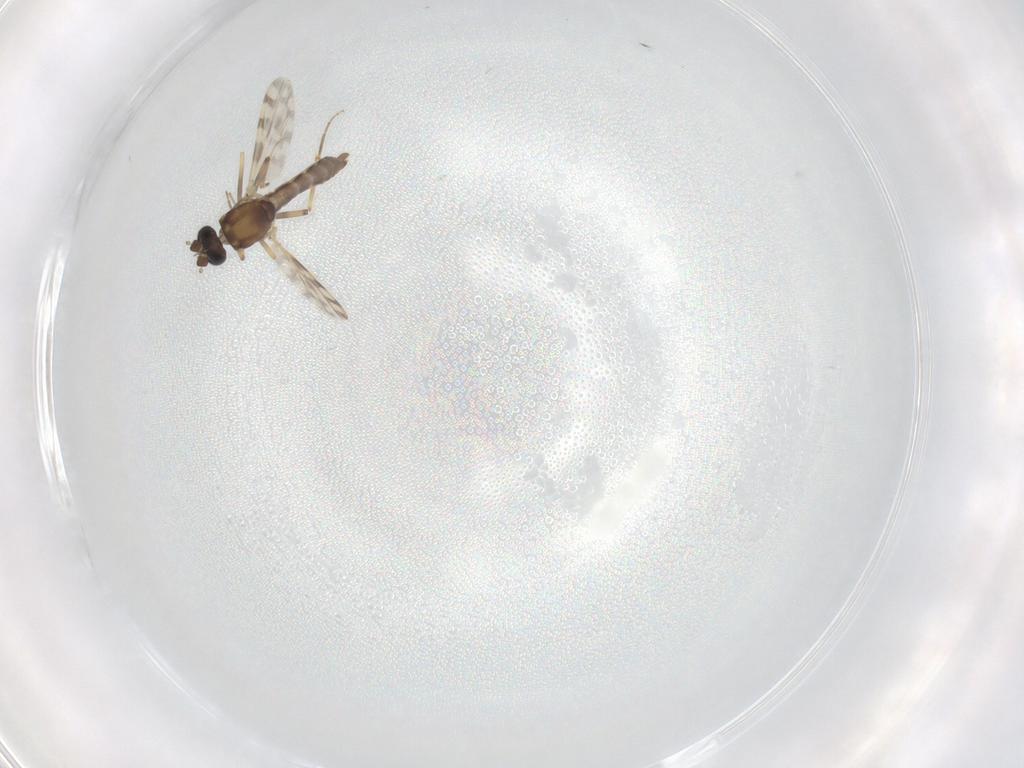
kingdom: Animalia
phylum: Arthropoda
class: Insecta
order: Diptera
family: Ceratopogonidae
